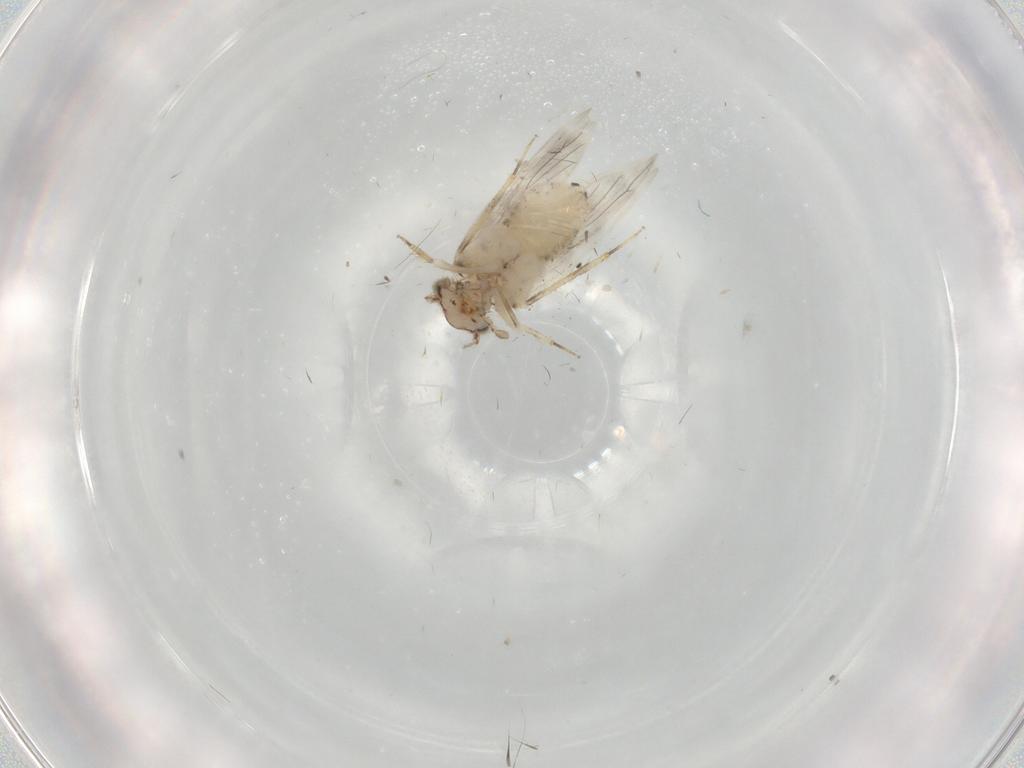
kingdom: Animalia
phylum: Arthropoda
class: Insecta
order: Psocodea
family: Lepidopsocidae
